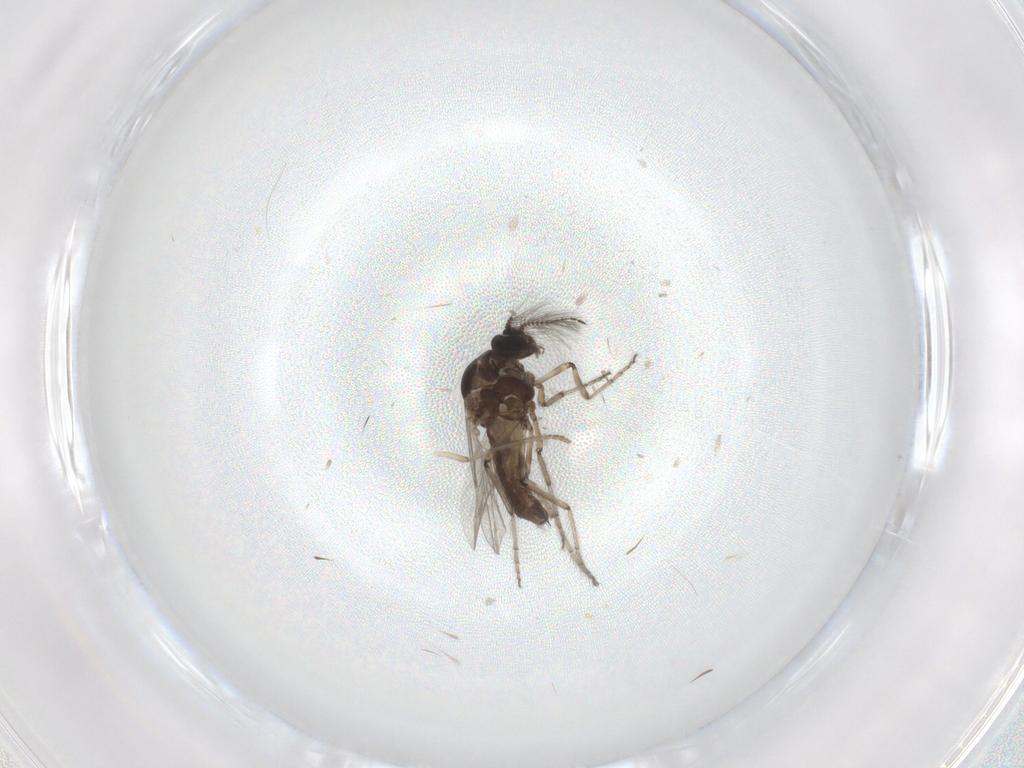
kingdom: Animalia
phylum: Arthropoda
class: Insecta
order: Diptera
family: Ceratopogonidae
